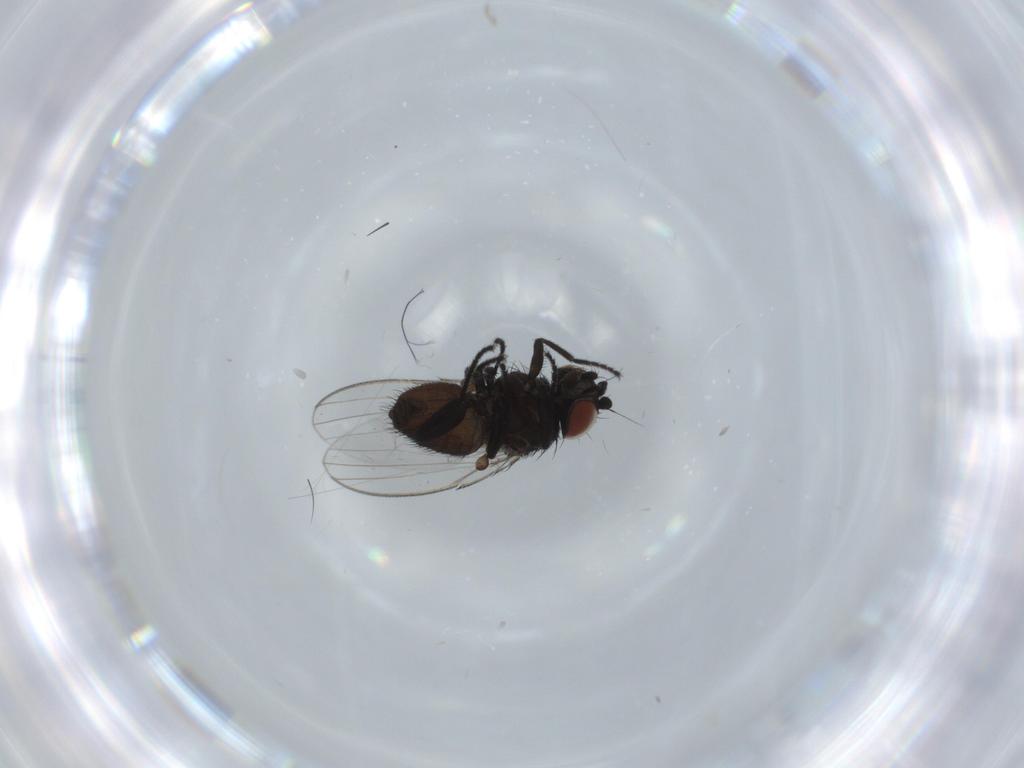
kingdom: Animalia
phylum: Arthropoda
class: Insecta
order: Diptera
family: Milichiidae
